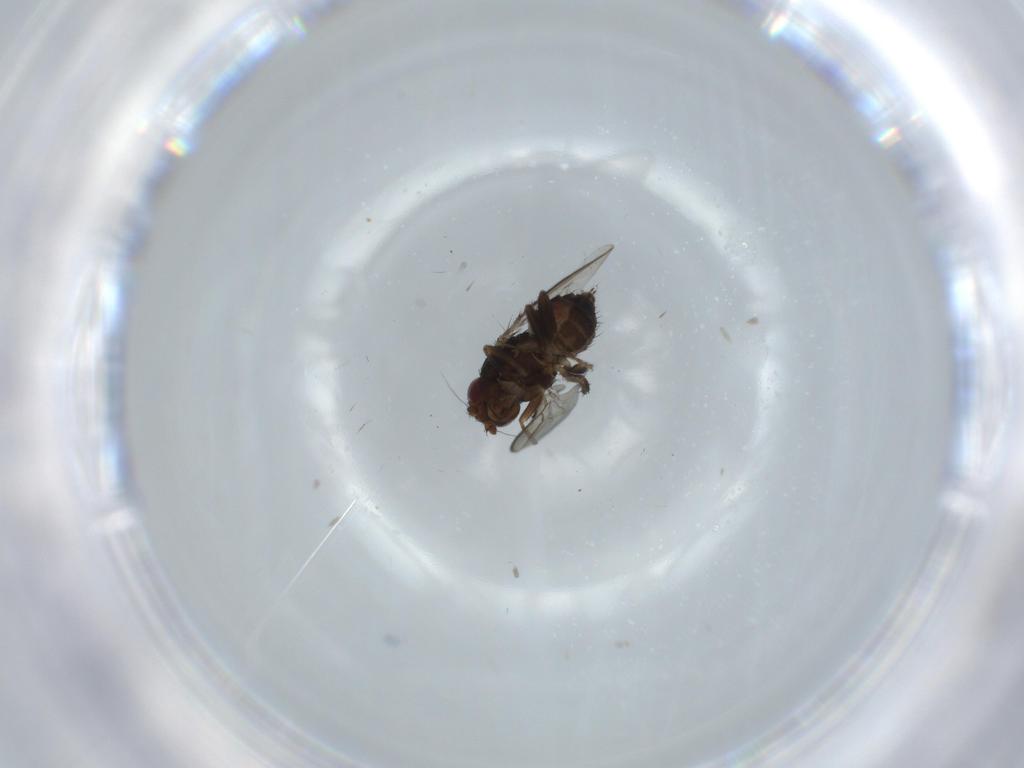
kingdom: Animalia
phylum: Arthropoda
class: Insecta
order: Diptera
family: Sphaeroceridae
